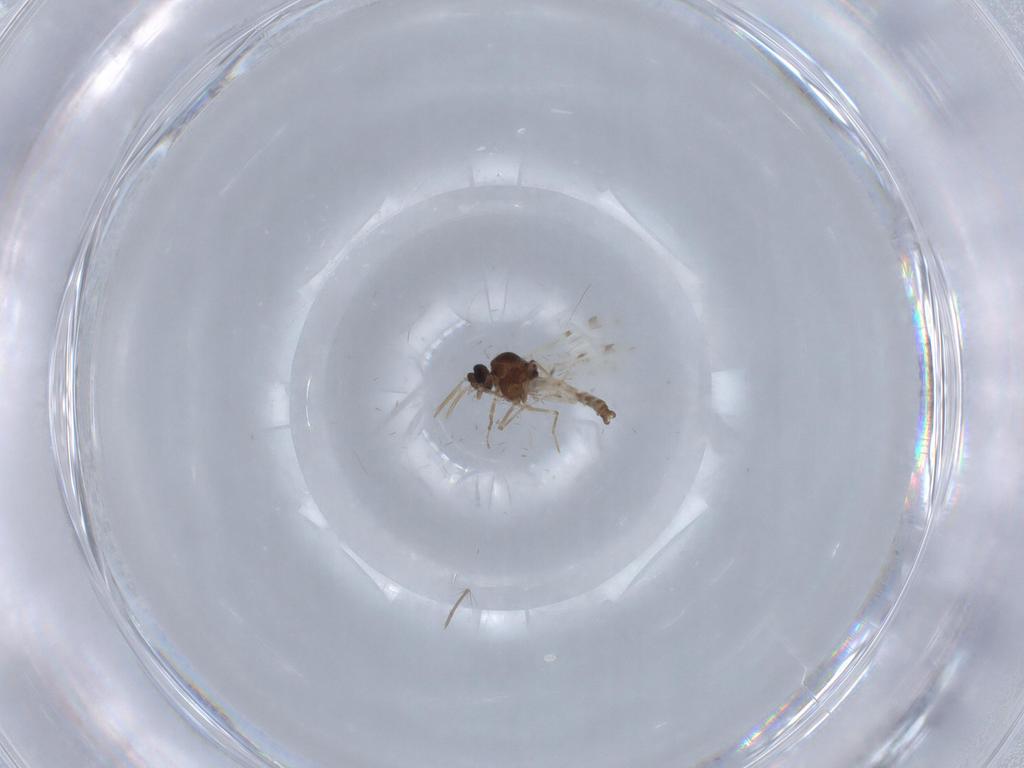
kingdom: Animalia
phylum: Arthropoda
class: Insecta
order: Diptera
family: Culicidae
